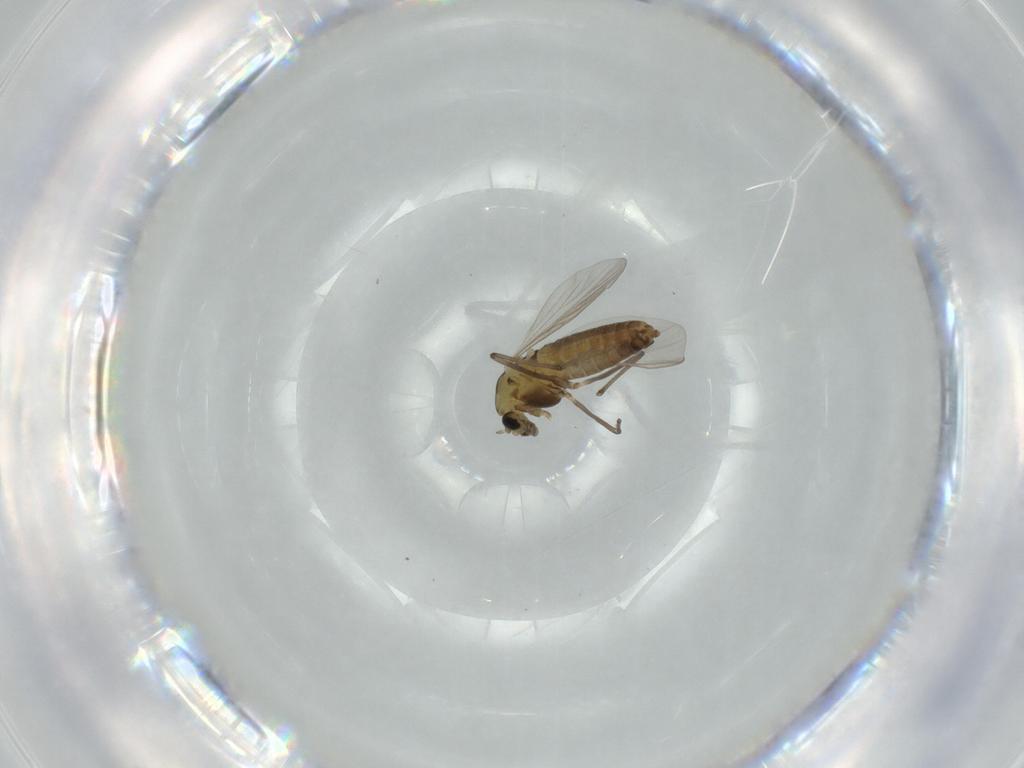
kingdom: Animalia
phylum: Arthropoda
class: Insecta
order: Diptera
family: Chironomidae
